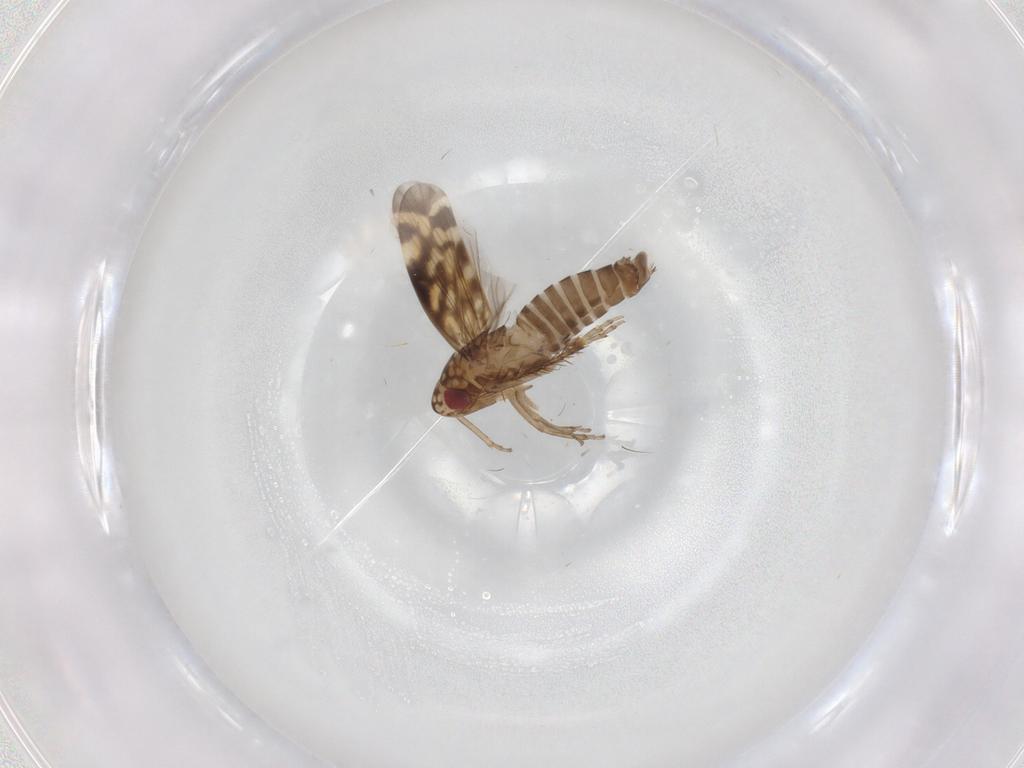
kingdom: Animalia
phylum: Arthropoda
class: Insecta
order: Hemiptera
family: Cicadellidae
